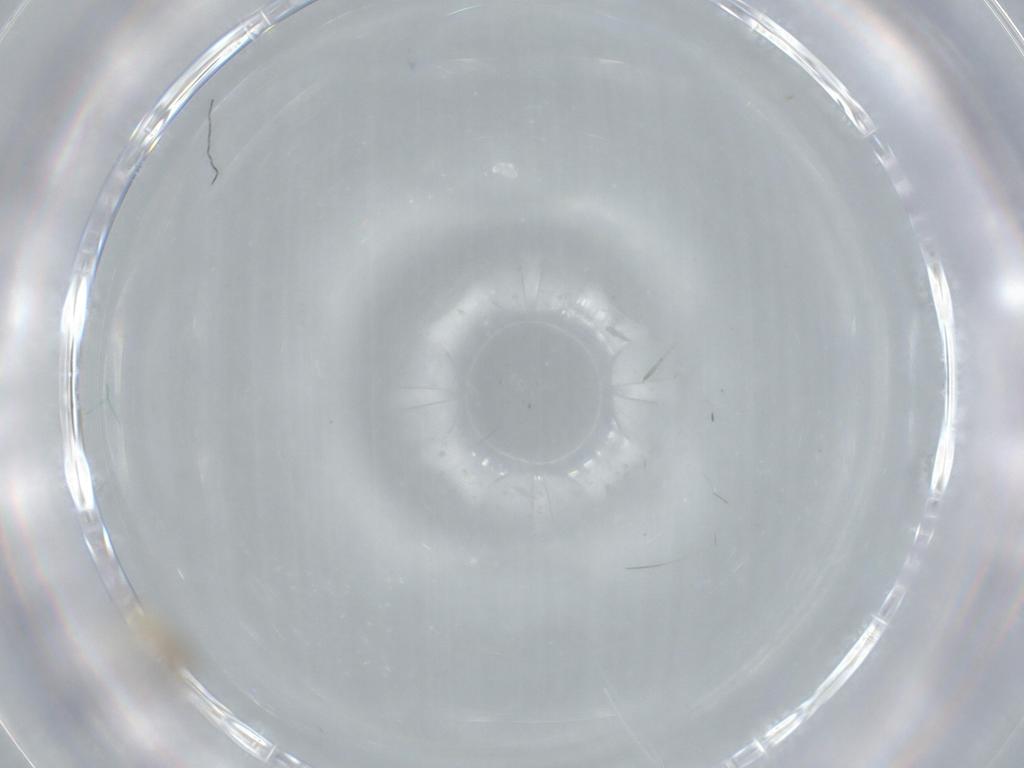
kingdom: Animalia
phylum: Arthropoda
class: Insecta
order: Diptera
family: Cecidomyiidae
